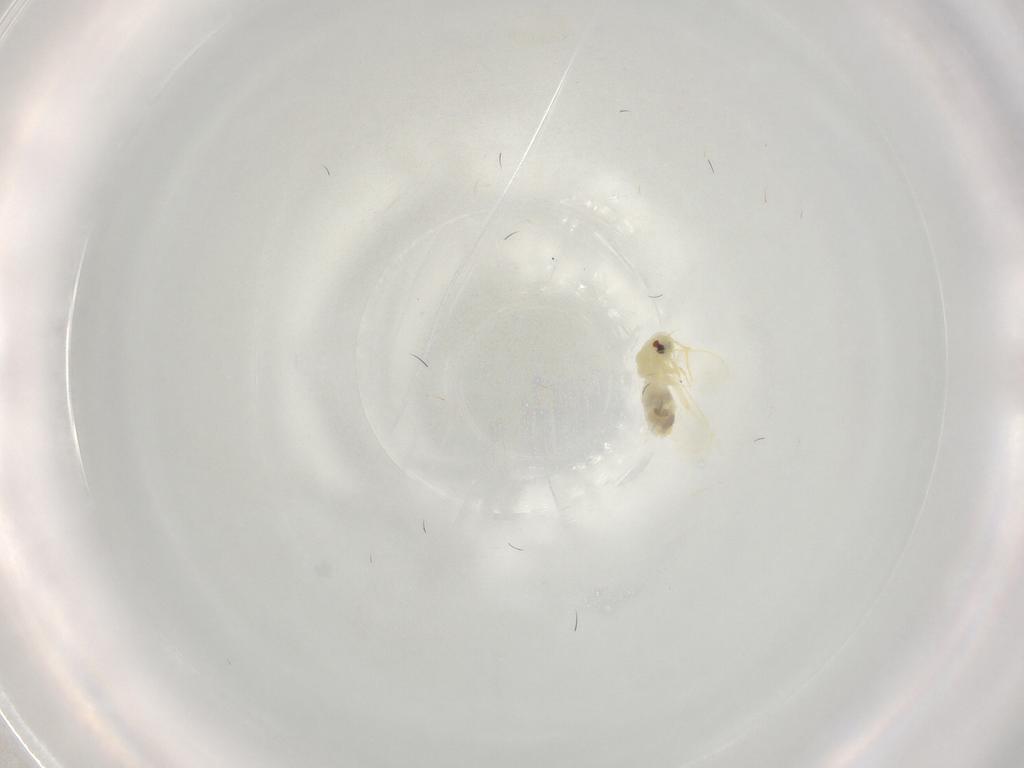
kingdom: Animalia
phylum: Arthropoda
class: Insecta
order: Hemiptera
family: Aleyrodidae
